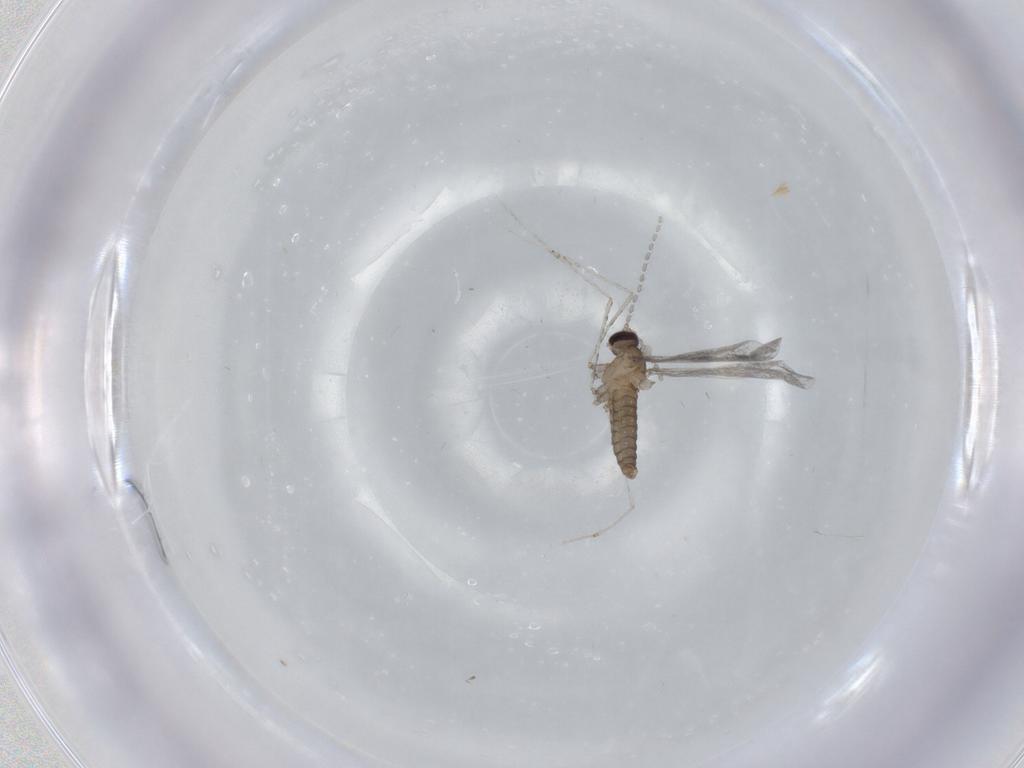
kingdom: Animalia
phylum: Arthropoda
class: Insecta
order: Diptera
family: Cecidomyiidae
